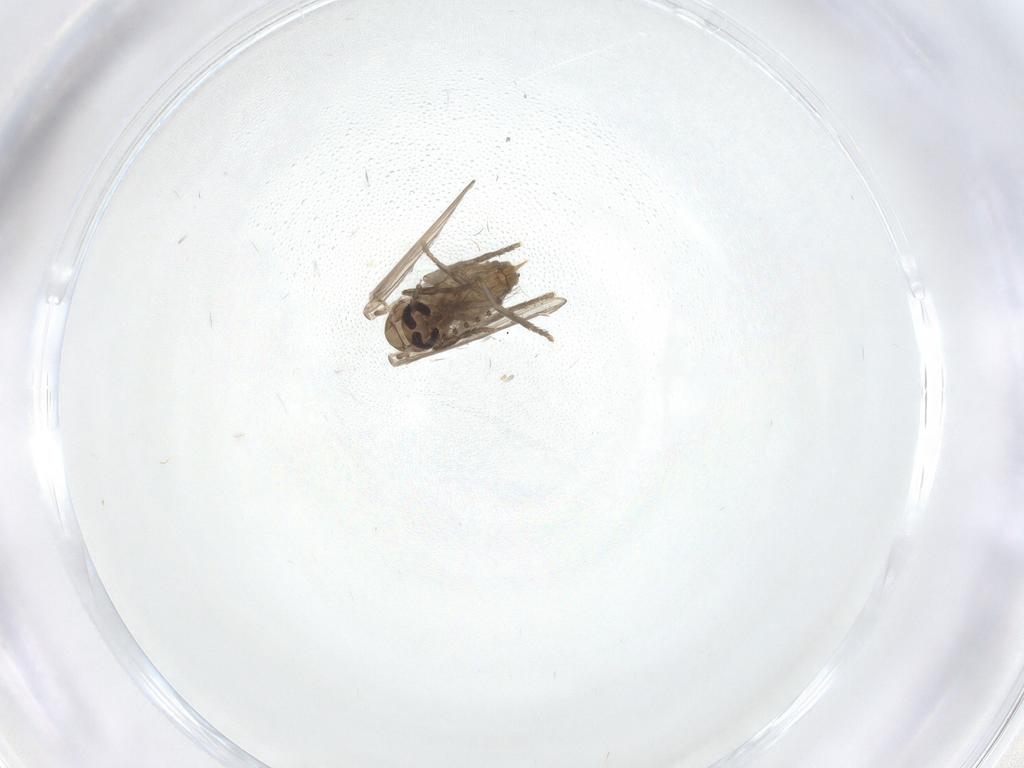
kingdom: Animalia
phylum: Arthropoda
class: Insecta
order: Diptera
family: Psychodidae
